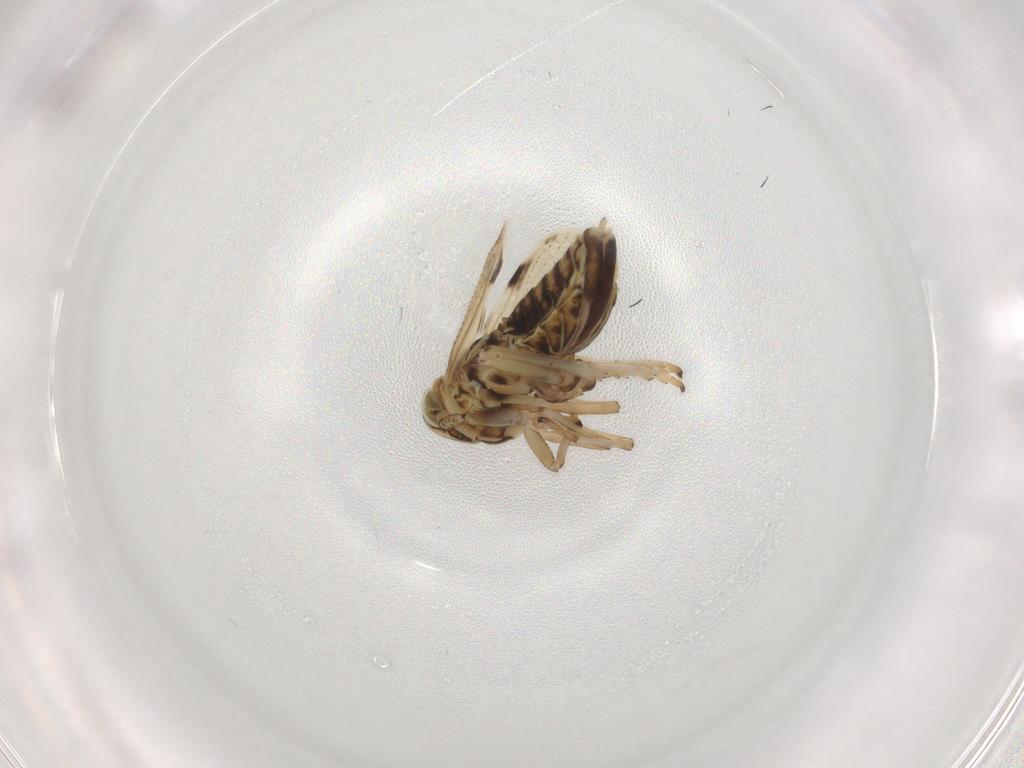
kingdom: Animalia
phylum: Arthropoda
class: Insecta
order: Hemiptera
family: Delphacidae
